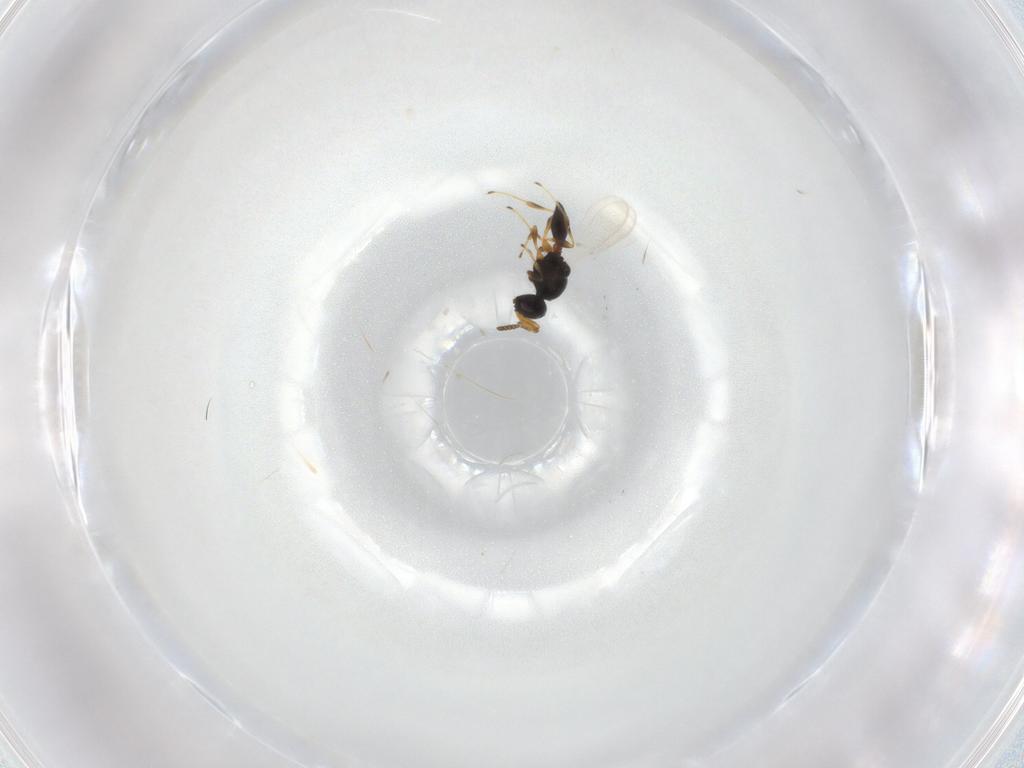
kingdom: Animalia
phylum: Arthropoda
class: Insecta
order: Hymenoptera
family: Platygastridae
